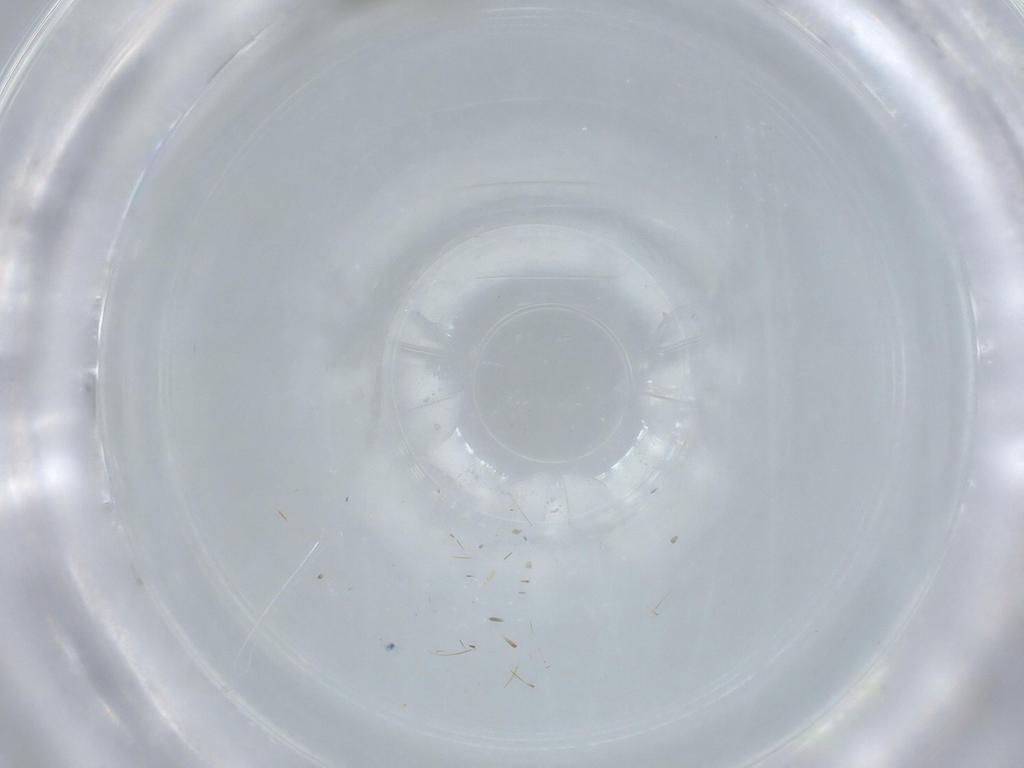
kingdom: Animalia
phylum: Arthropoda
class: Insecta
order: Hymenoptera
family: Diapriidae
